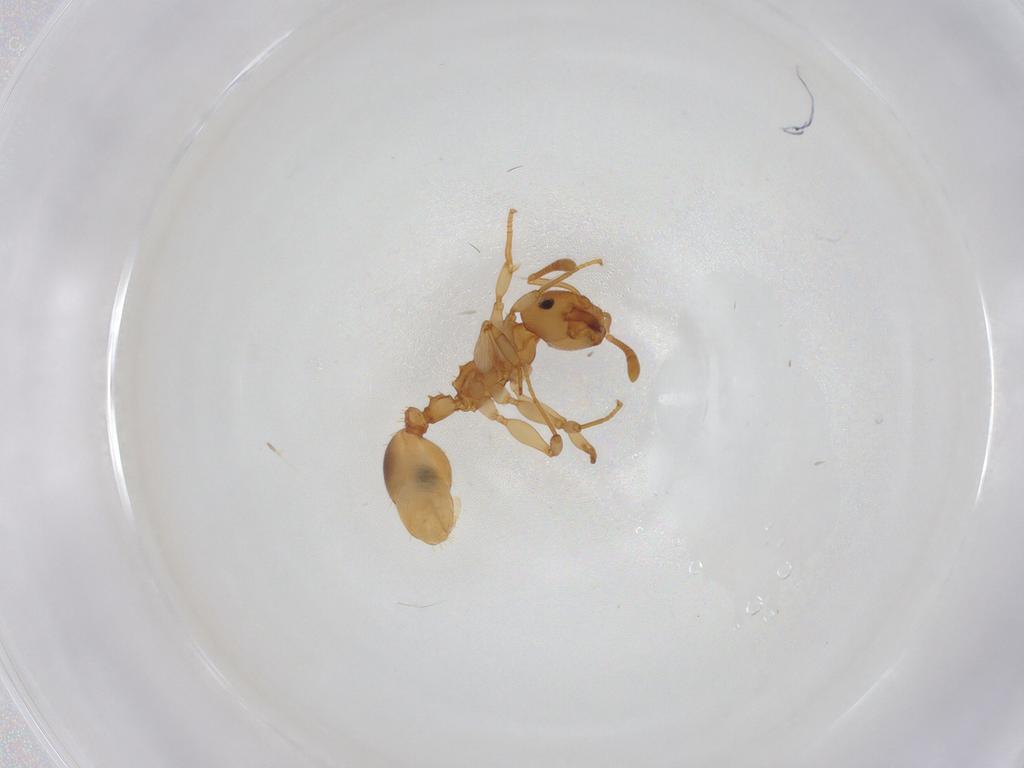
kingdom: Animalia
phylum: Arthropoda
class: Insecta
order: Hymenoptera
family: Formicidae
